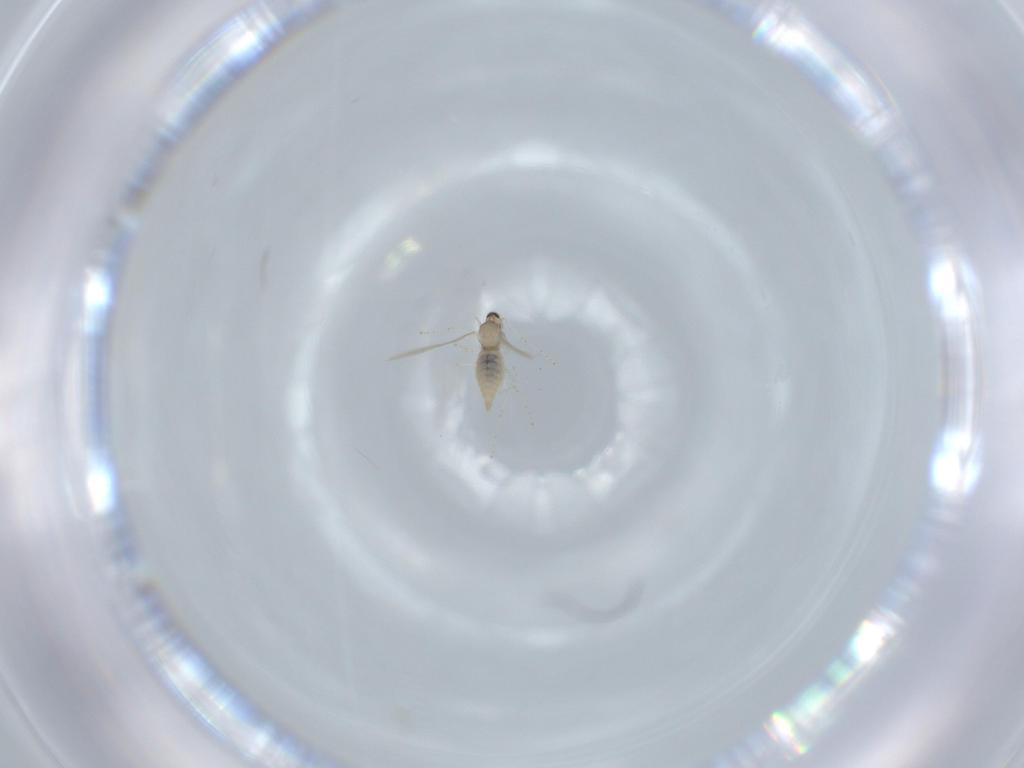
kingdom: Animalia
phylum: Arthropoda
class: Insecta
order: Diptera
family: Cecidomyiidae
